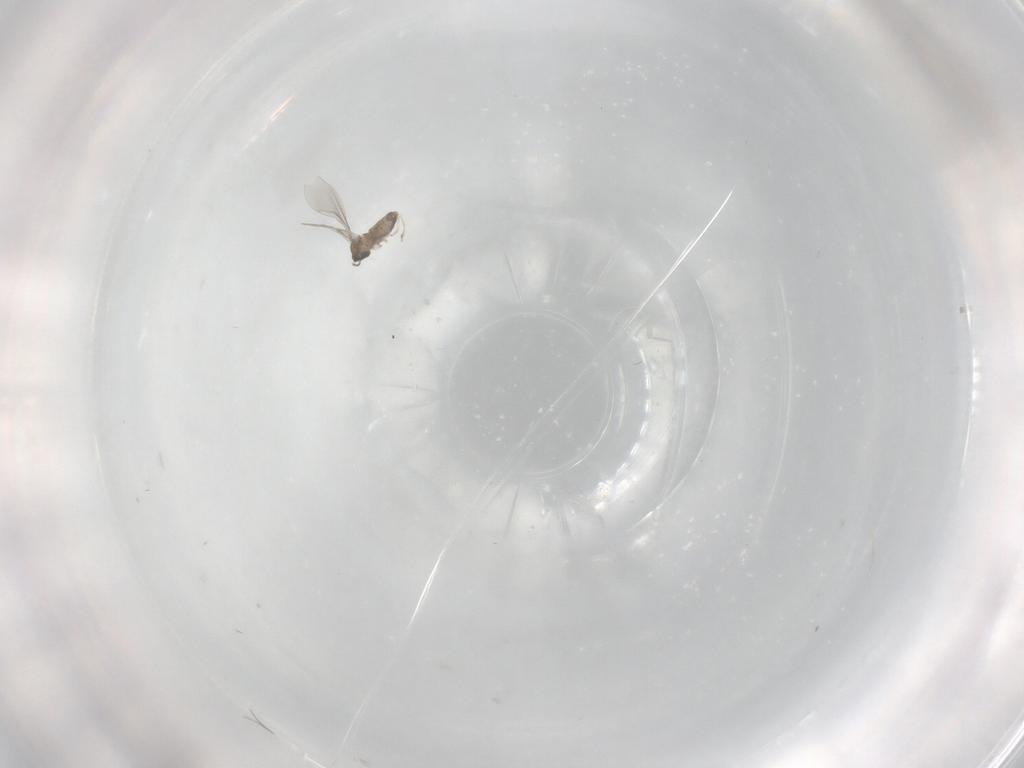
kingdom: Animalia
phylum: Arthropoda
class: Insecta
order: Diptera
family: Cecidomyiidae
